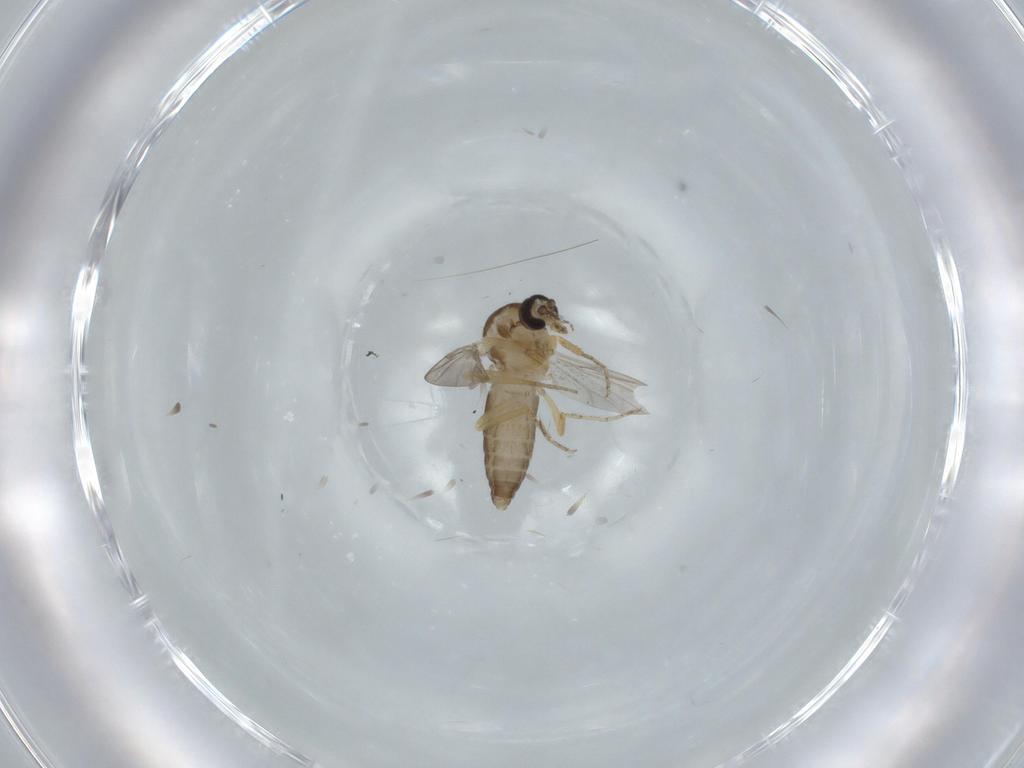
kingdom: Animalia
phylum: Arthropoda
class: Insecta
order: Diptera
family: Ceratopogonidae
